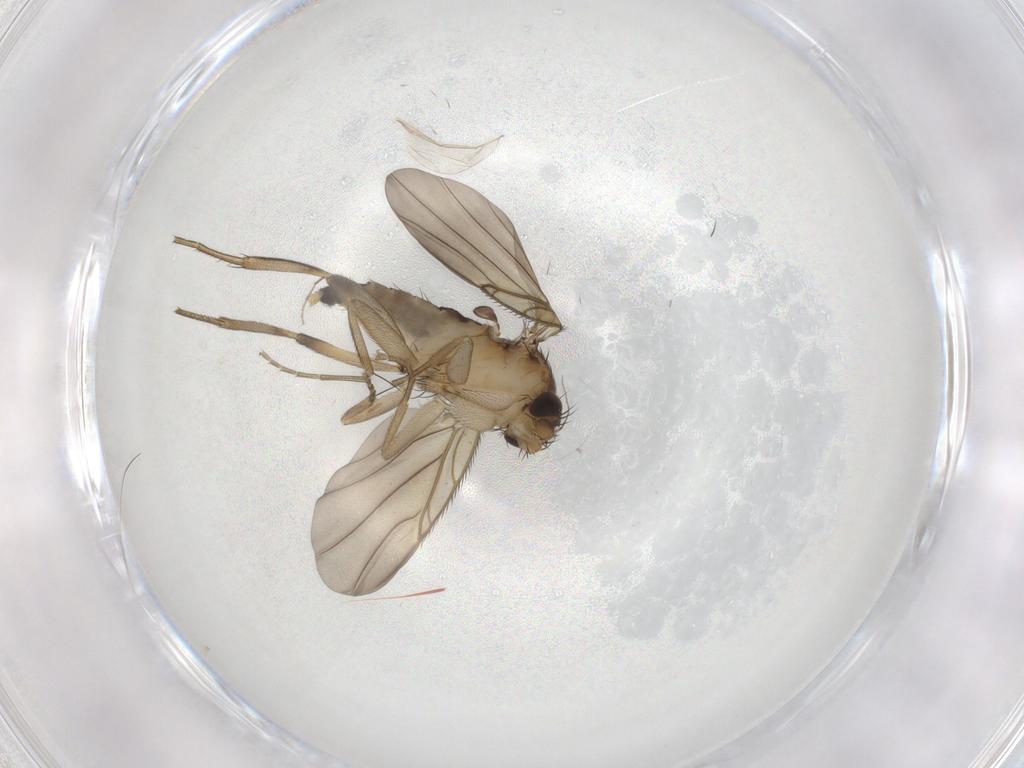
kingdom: Animalia
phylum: Arthropoda
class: Insecta
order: Diptera
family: Phoridae
